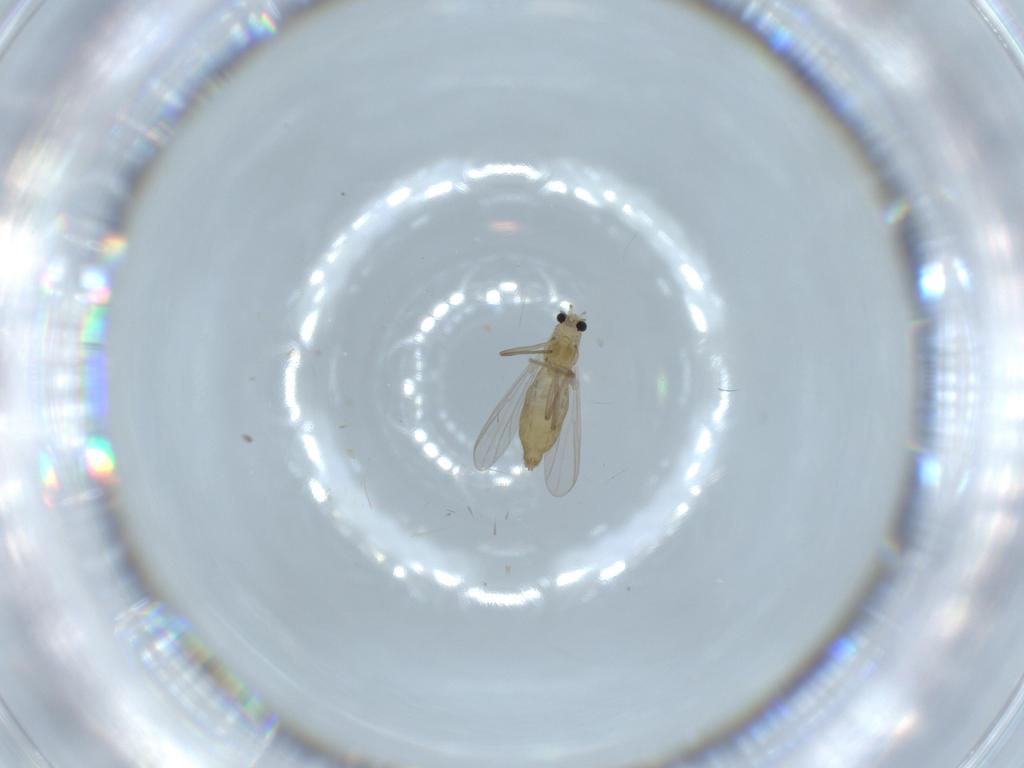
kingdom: Animalia
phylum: Arthropoda
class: Insecta
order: Diptera
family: Chironomidae
